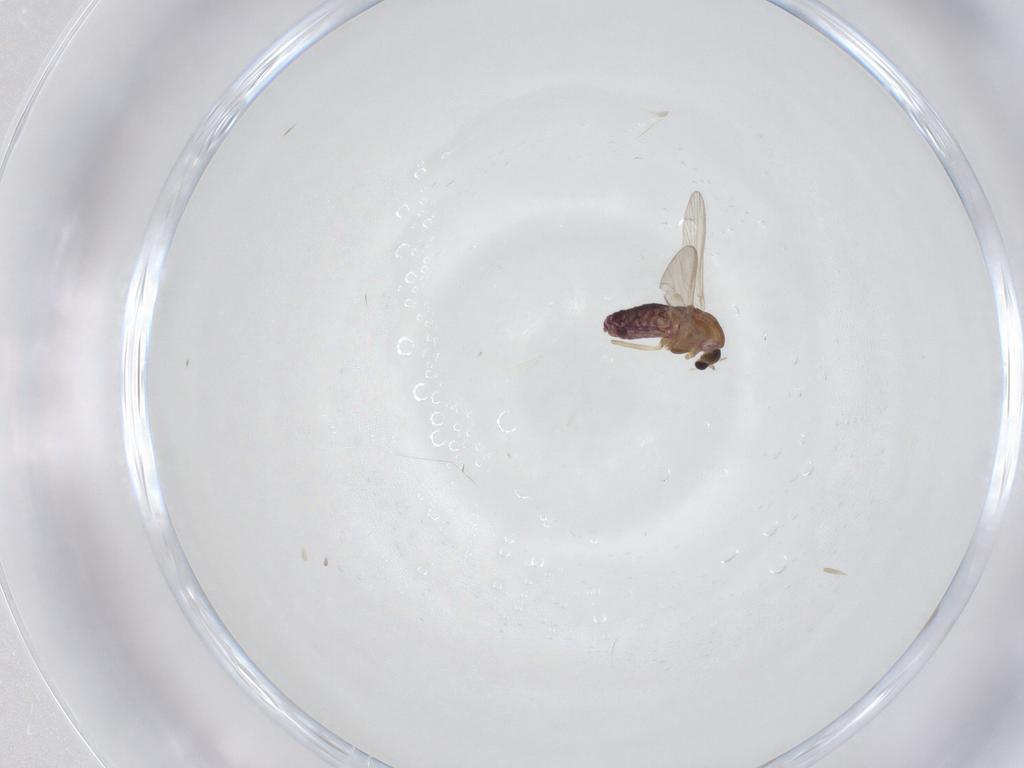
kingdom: Animalia
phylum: Arthropoda
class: Insecta
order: Diptera
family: Chironomidae
